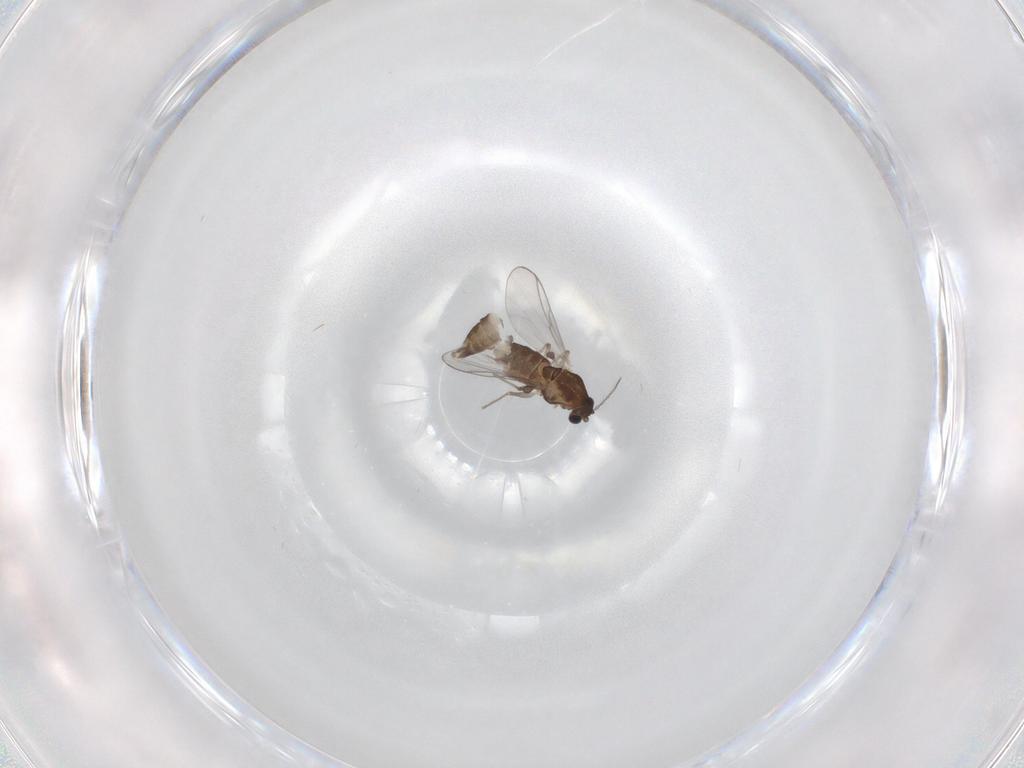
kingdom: Animalia
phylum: Arthropoda
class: Insecta
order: Diptera
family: Chironomidae
